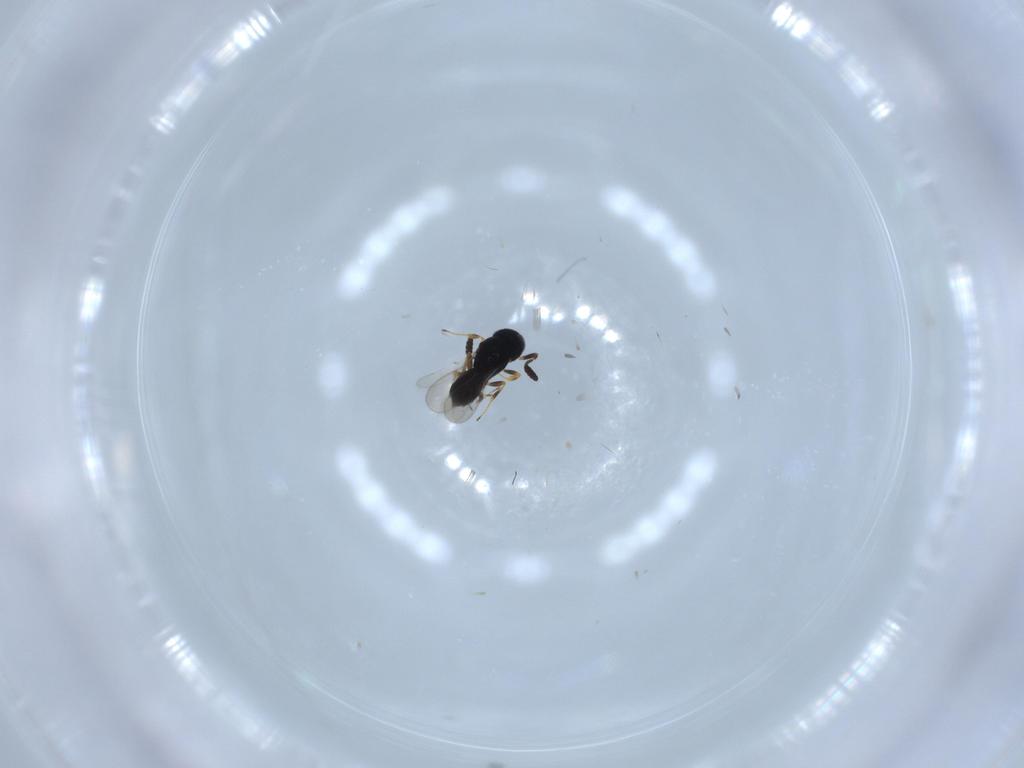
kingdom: Animalia
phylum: Arthropoda
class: Insecta
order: Hymenoptera
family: Scelionidae
